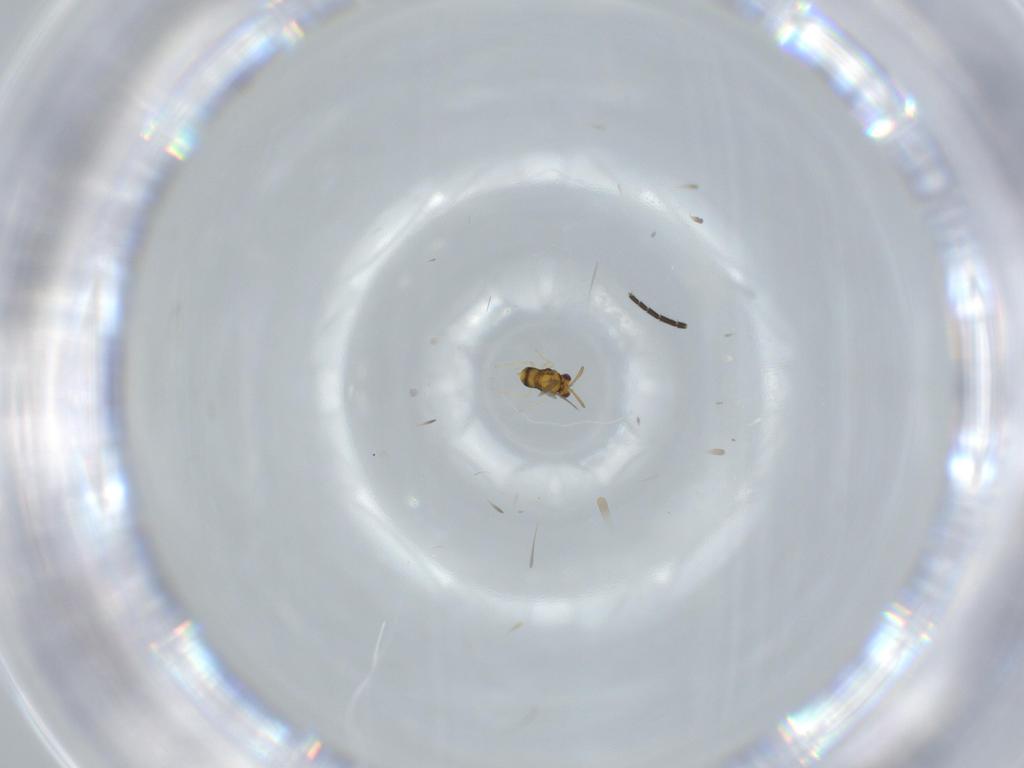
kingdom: Animalia
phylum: Arthropoda
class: Insecta
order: Hymenoptera
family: Aphelinidae
